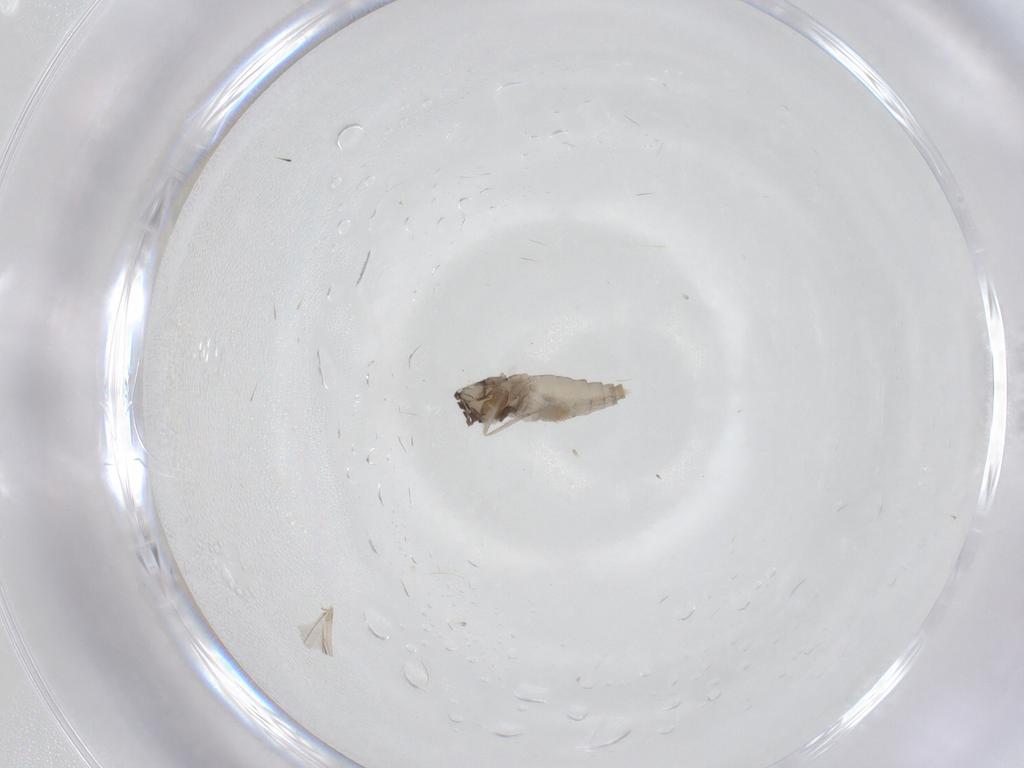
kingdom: Animalia
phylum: Arthropoda
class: Insecta
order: Diptera
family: Cecidomyiidae
